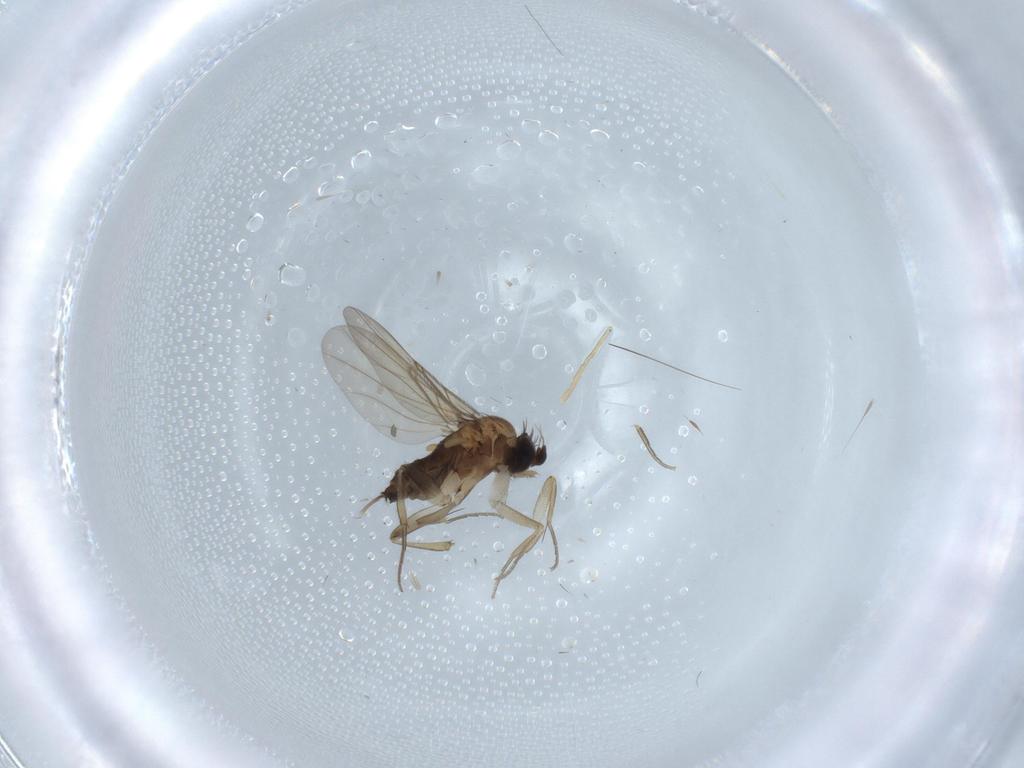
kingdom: Animalia
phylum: Arthropoda
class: Insecta
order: Diptera
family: Phoridae
